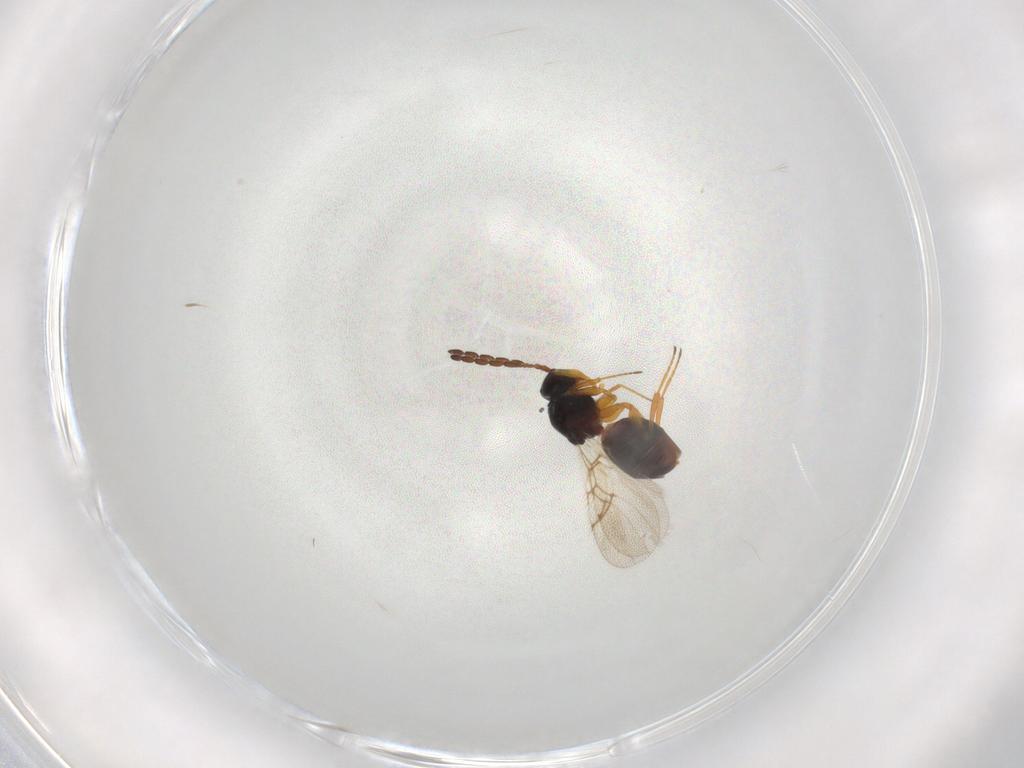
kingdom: Animalia
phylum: Arthropoda
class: Insecta
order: Hymenoptera
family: Figitidae
